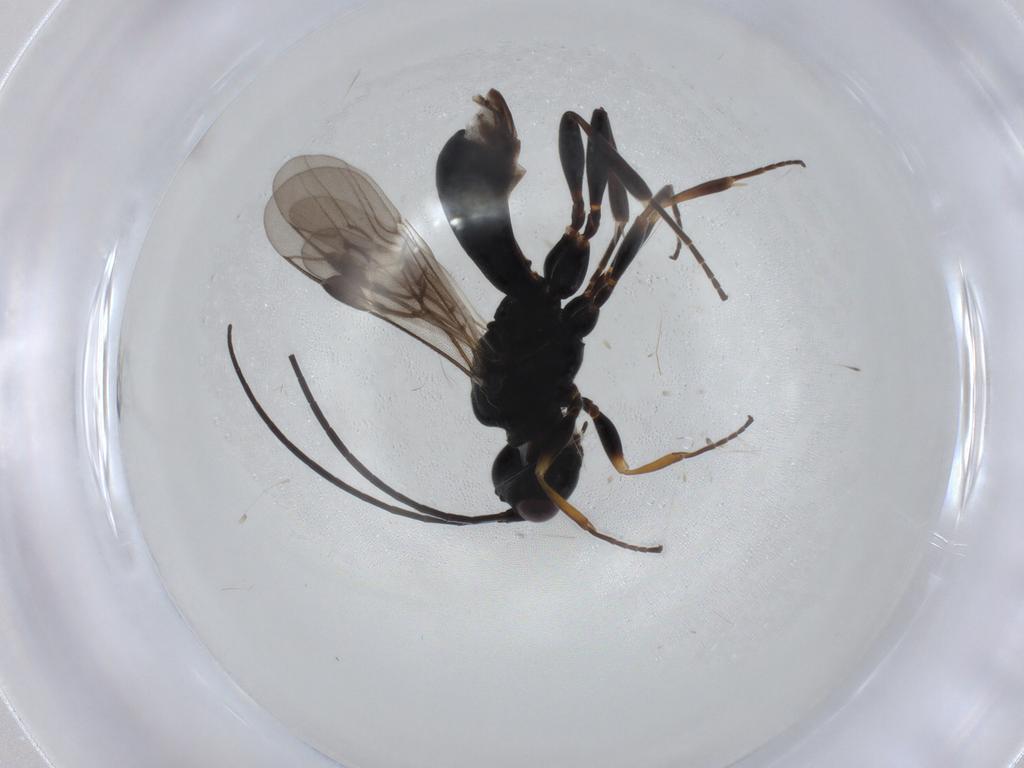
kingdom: Animalia
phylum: Arthropoda
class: Insecta
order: Hymenoptera
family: Braconidae
